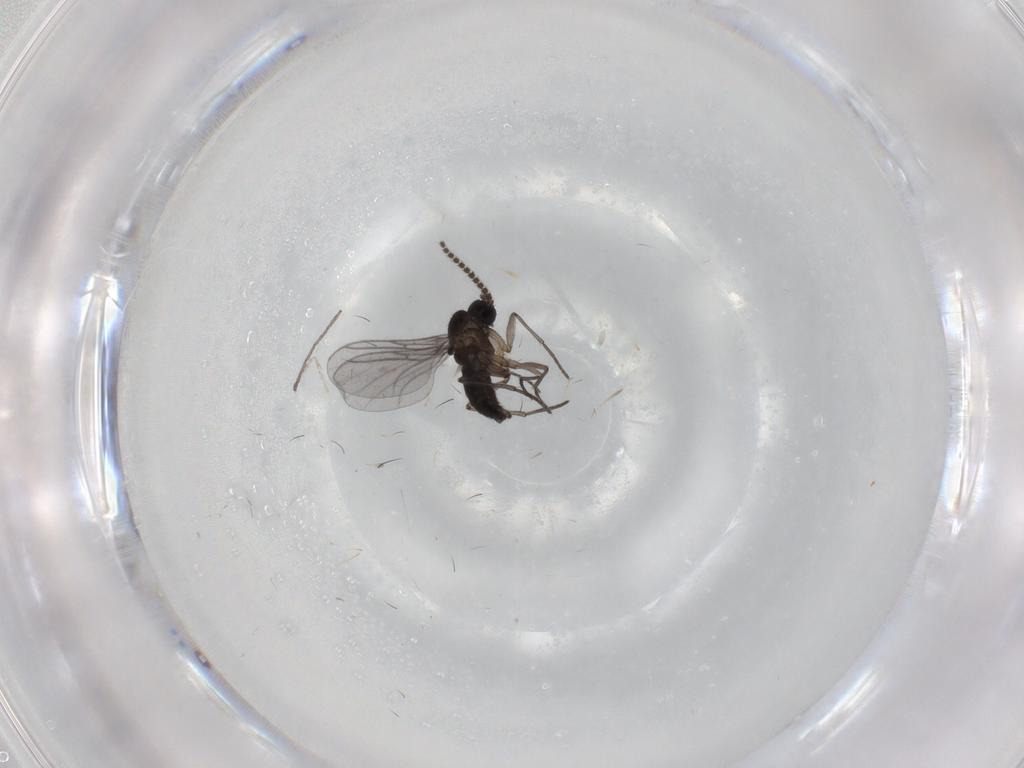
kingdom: Animalia
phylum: Arthropoda
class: Insecta
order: Diptera
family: Sciaridae
